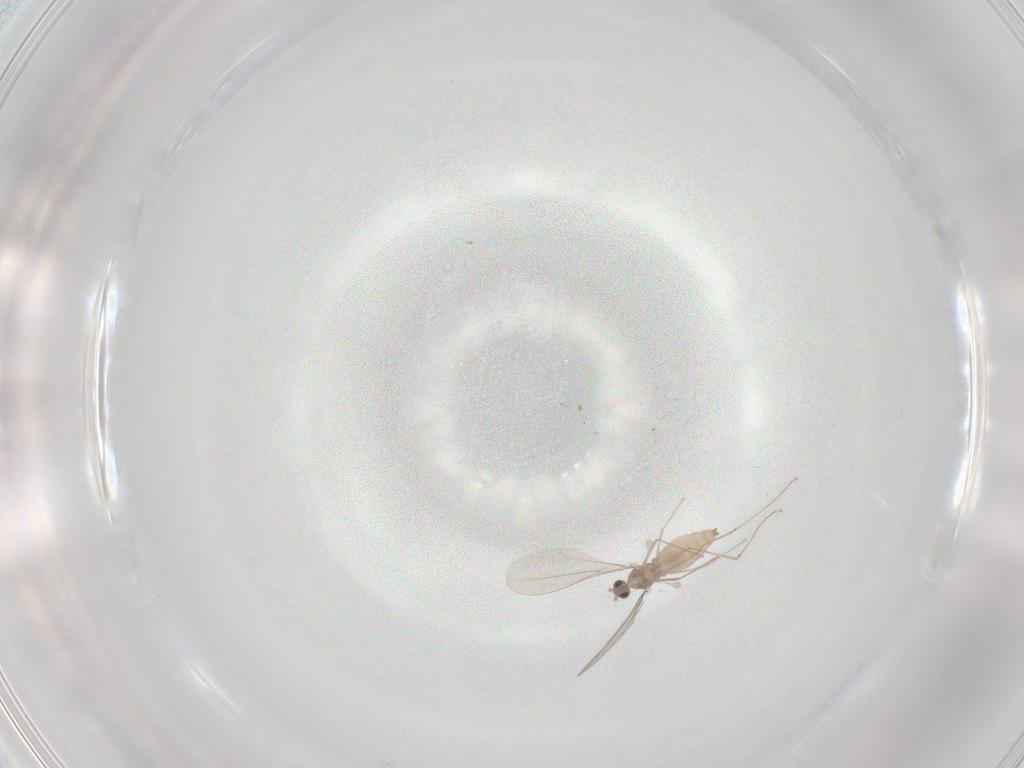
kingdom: Animalia
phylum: Arthropoda
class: Insecta
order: Diptera
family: Cecidomyiidae
